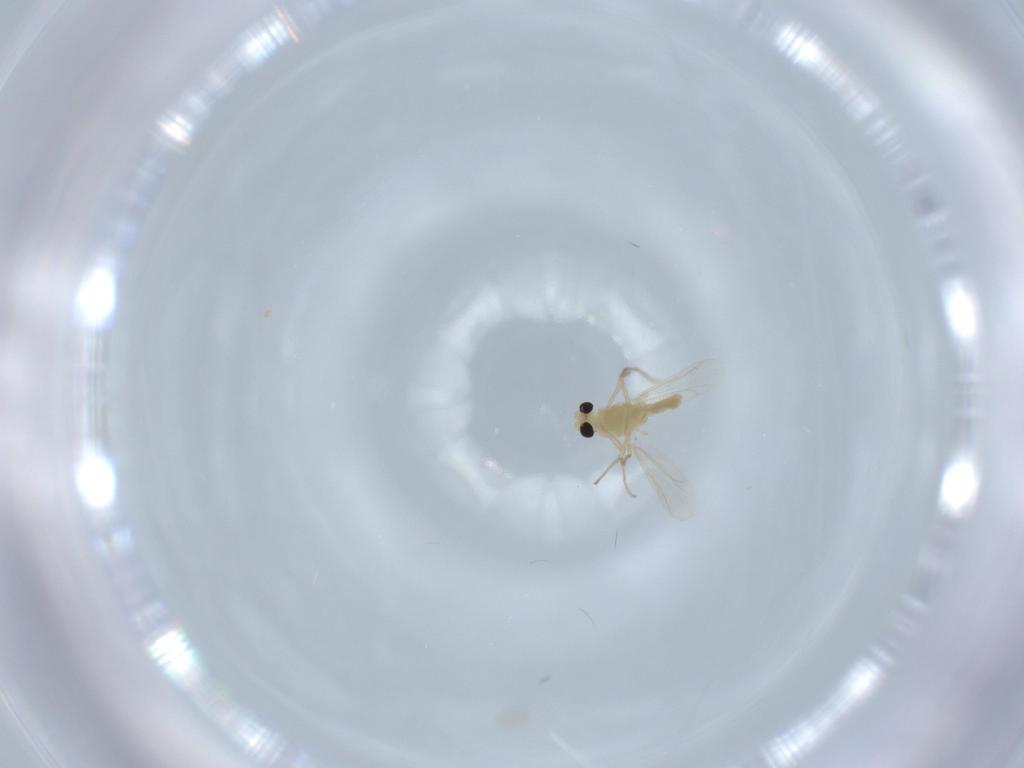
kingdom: Animalia
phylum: Arthropoda
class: Insecta
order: Diptera
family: Chironomidae
